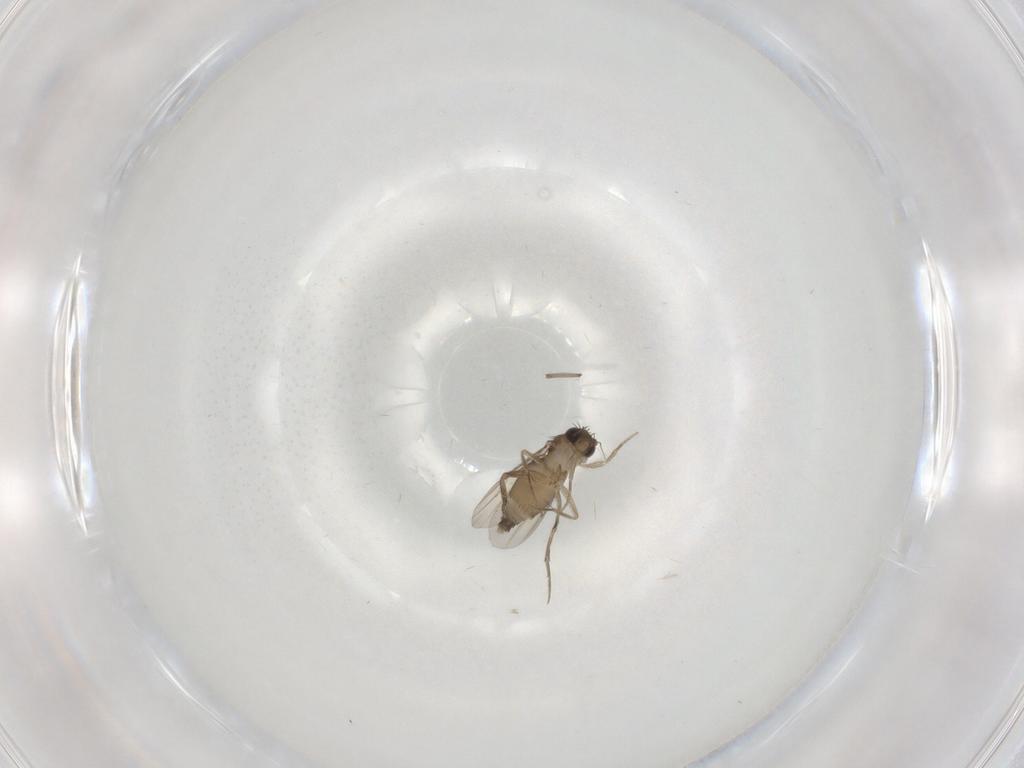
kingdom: Animalia
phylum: Arthropoda
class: Insecta
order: Diptera
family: Phoridae
